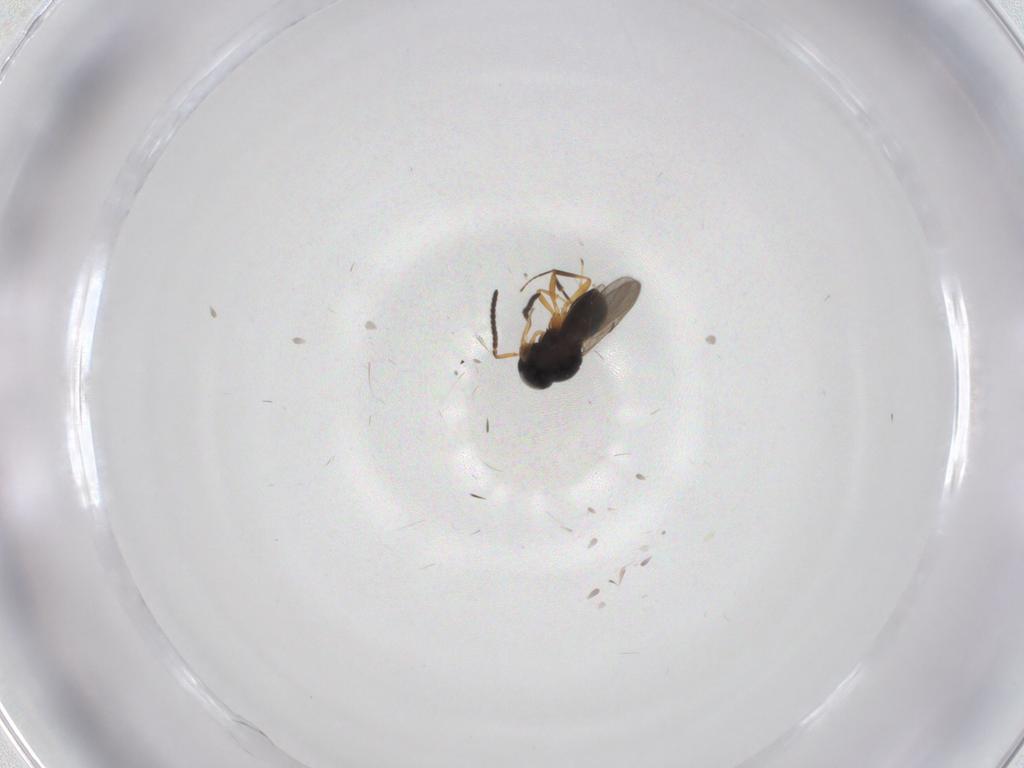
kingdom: Animalia
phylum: Arthropoda
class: Insecta
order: Hymenoptera
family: Scelionidae
